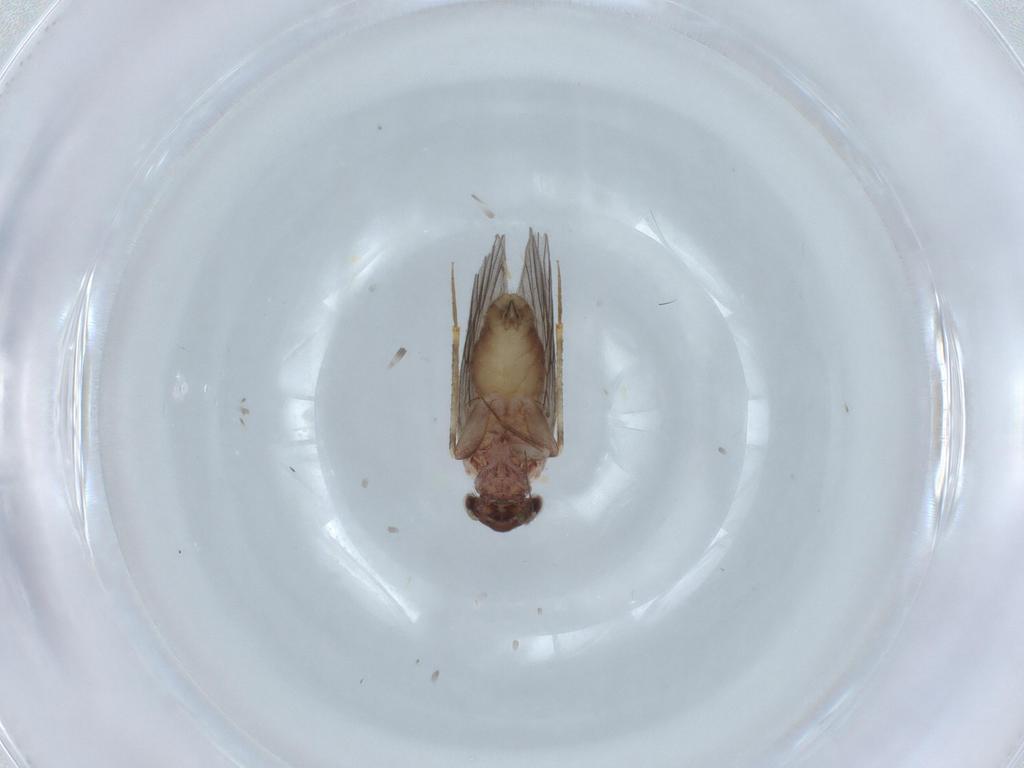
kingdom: Animalia
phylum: Arthropoda
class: Insecta
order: Psocodea
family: Lepidopsocidae
